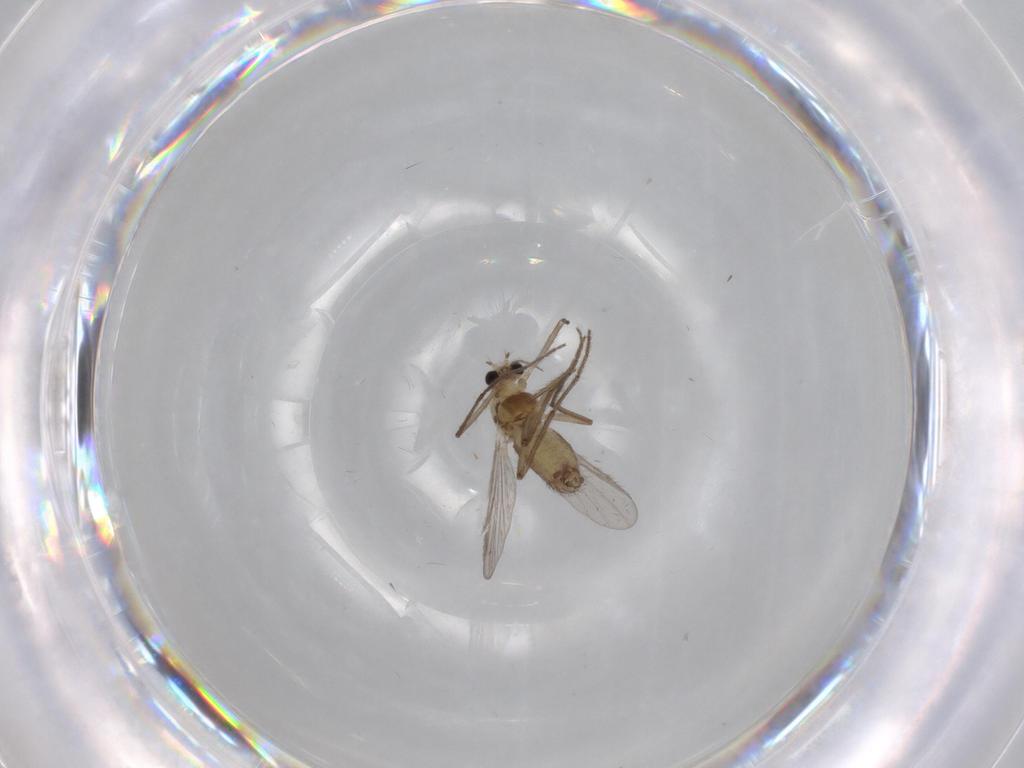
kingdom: Animalia
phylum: Arthropoda
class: Insecta
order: Diptera
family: Chironomidae
